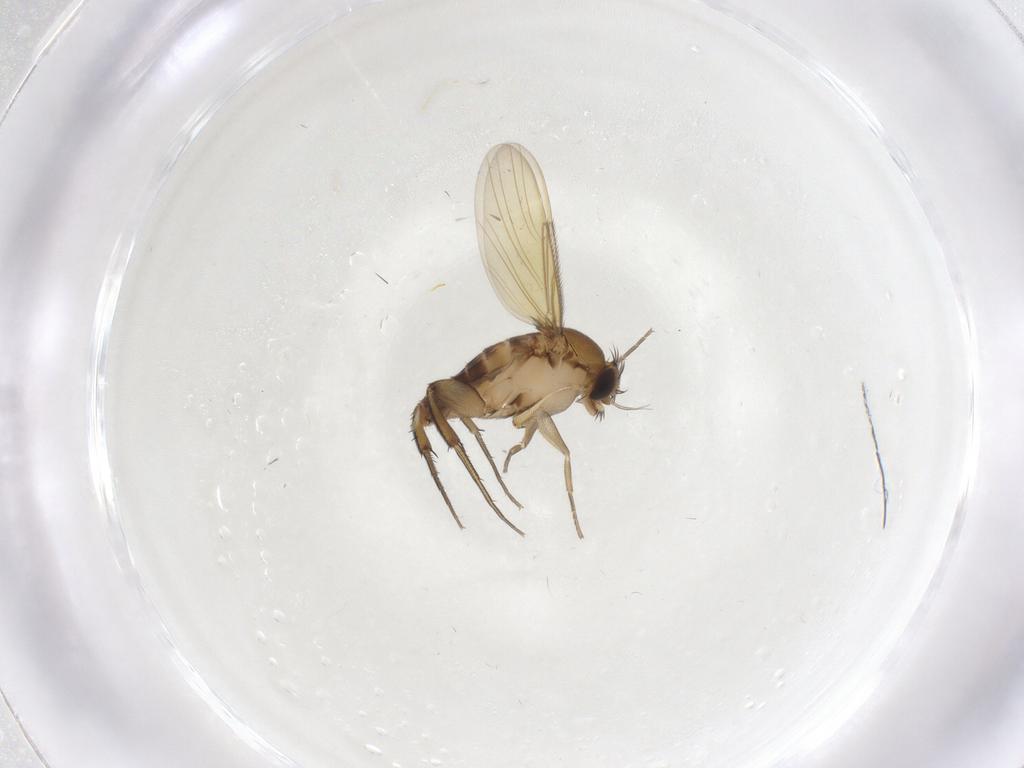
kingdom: Animalia
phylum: Arthropoda
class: Insecta
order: Diptera
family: Phoridae
